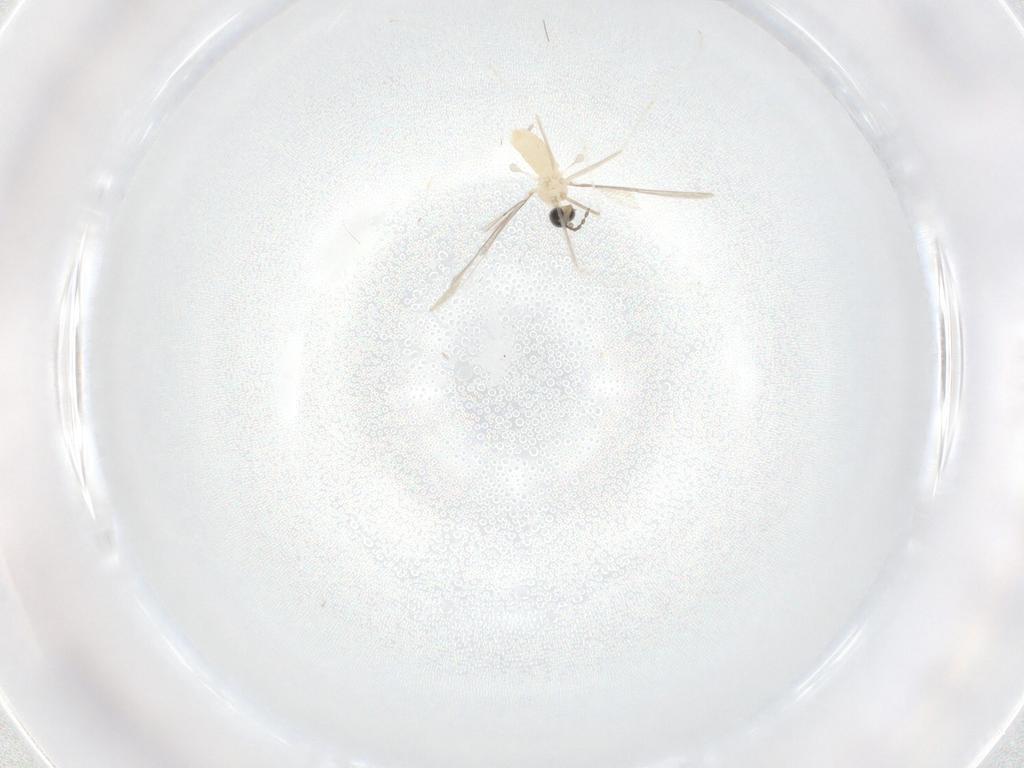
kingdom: Animalia
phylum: Arthropoda
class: Insecta
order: Diptera
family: Cecidomyiidae
